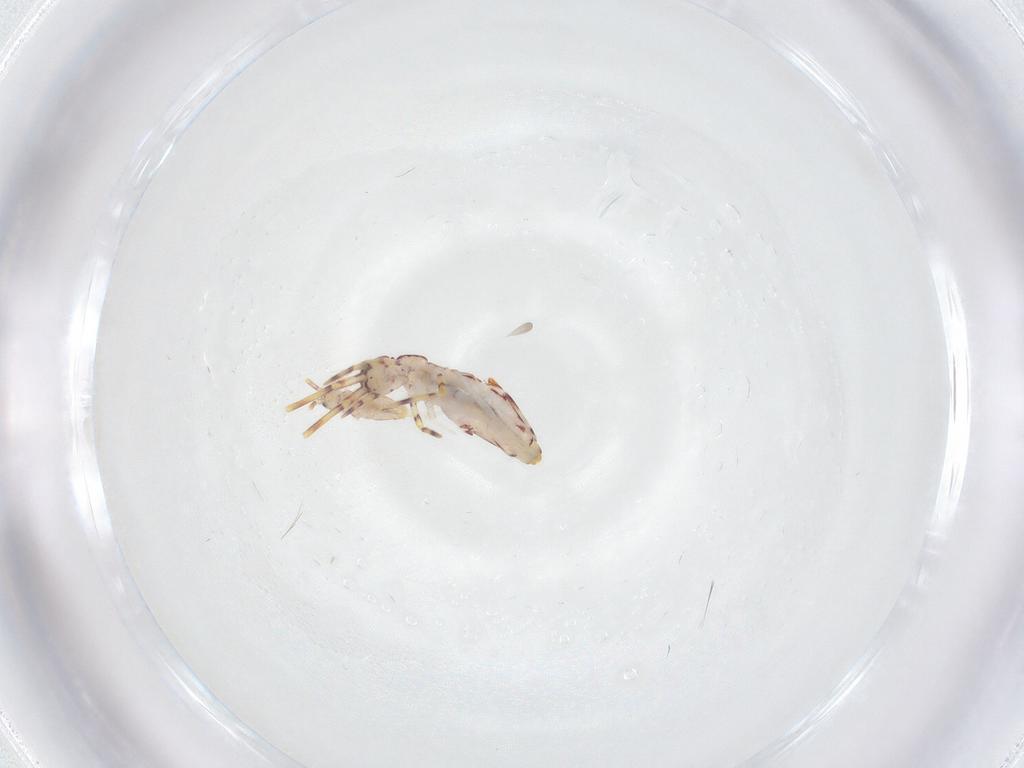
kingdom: Animalia
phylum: Arthropoda
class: Collembola
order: Entomobryomorpha
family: Entomobryidae
